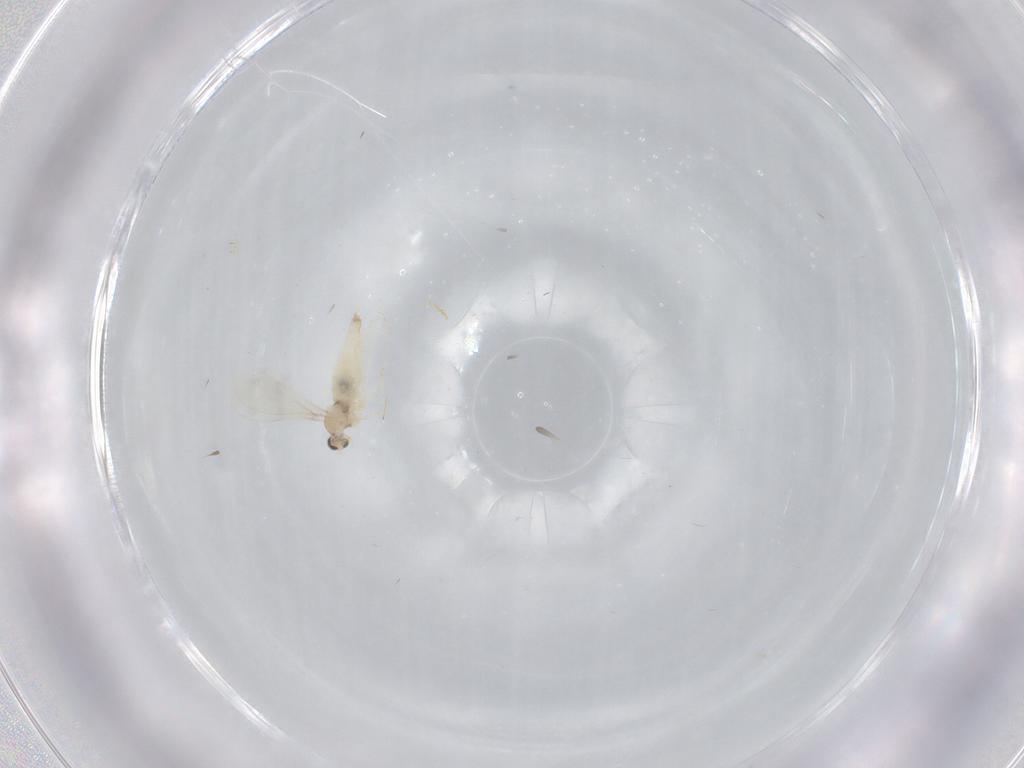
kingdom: Animalia
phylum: Arthropoda
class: Insecta
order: Diptera
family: Cecidomyiidae
